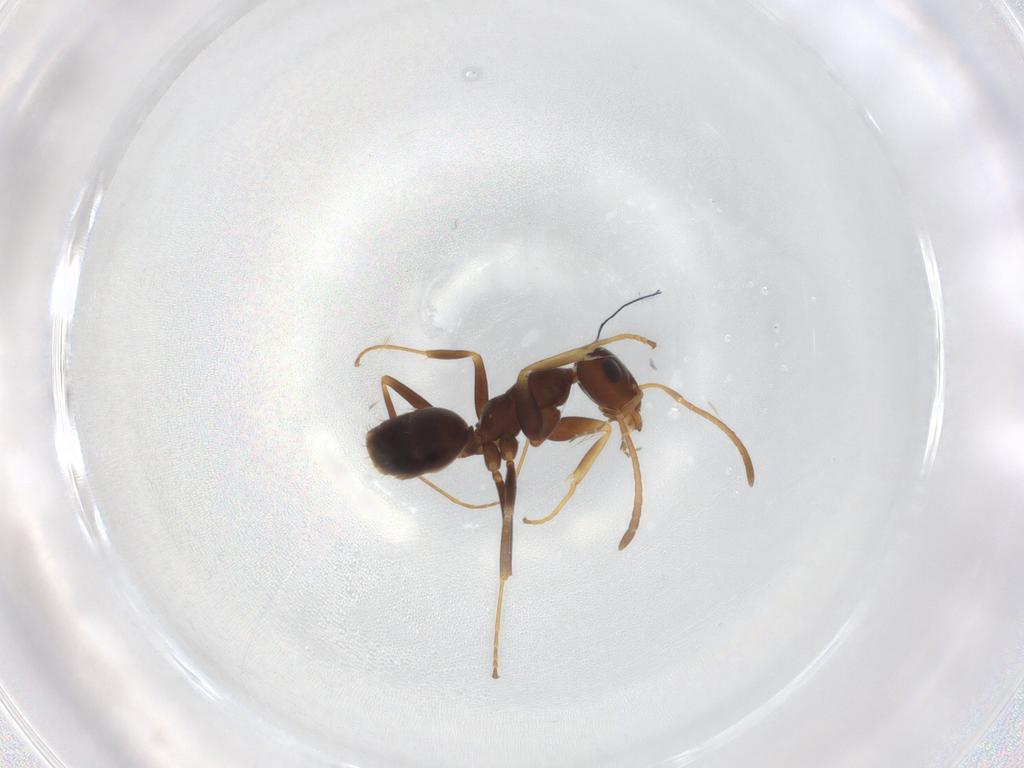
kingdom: Animalia
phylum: Arthropoda
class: Insecta
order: Hymenoptera
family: Formicidae
